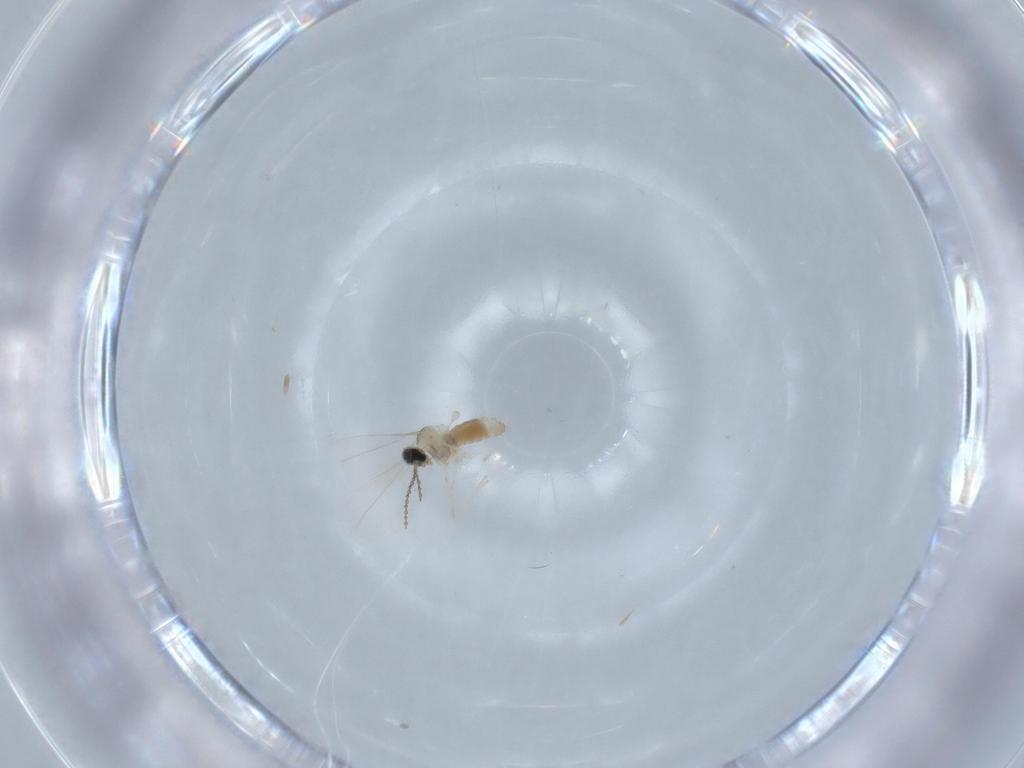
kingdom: Animalia
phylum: Arthropoda
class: Insecta
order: Diptera
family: Cecidomyiidae
